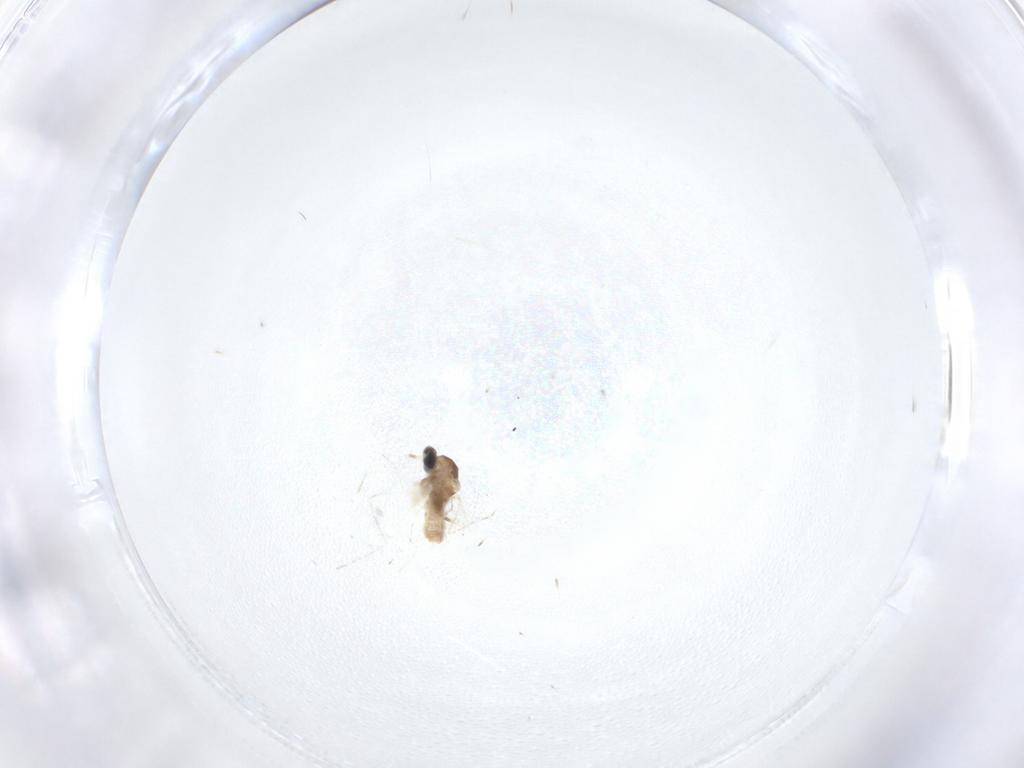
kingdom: Animalia
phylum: Arthropoda
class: Insecta
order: Diptera
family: Cecidomyiidae
